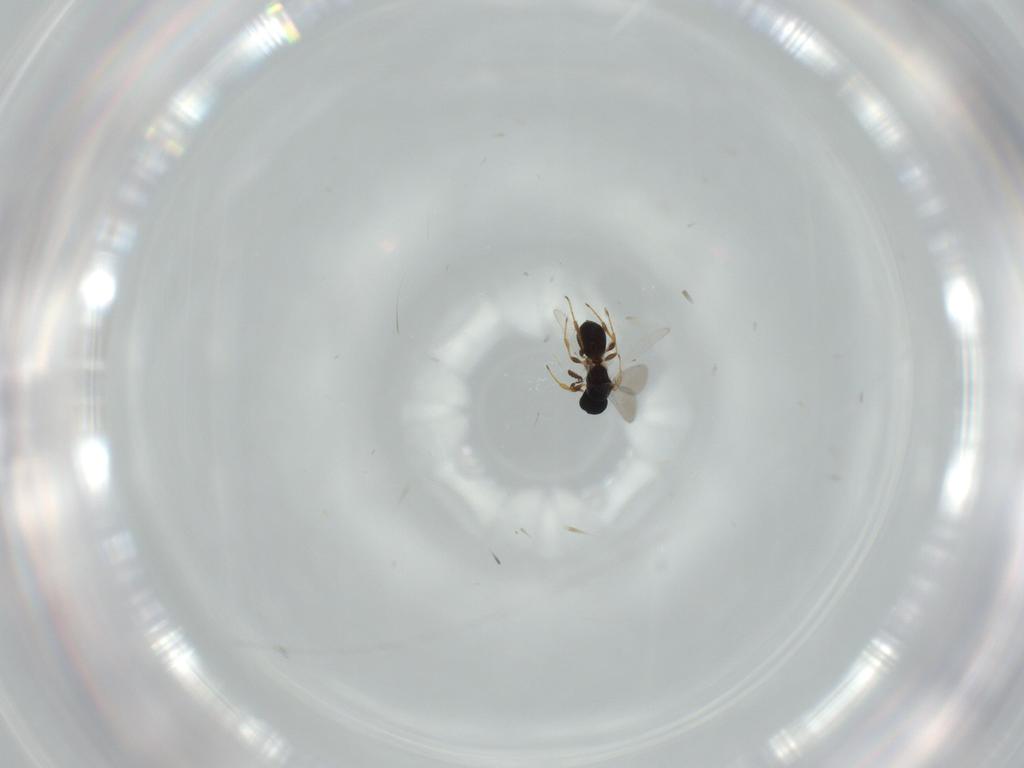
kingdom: Animalia
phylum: Arthropoda
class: Insecta
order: Hymenoptera
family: Platygastridae
